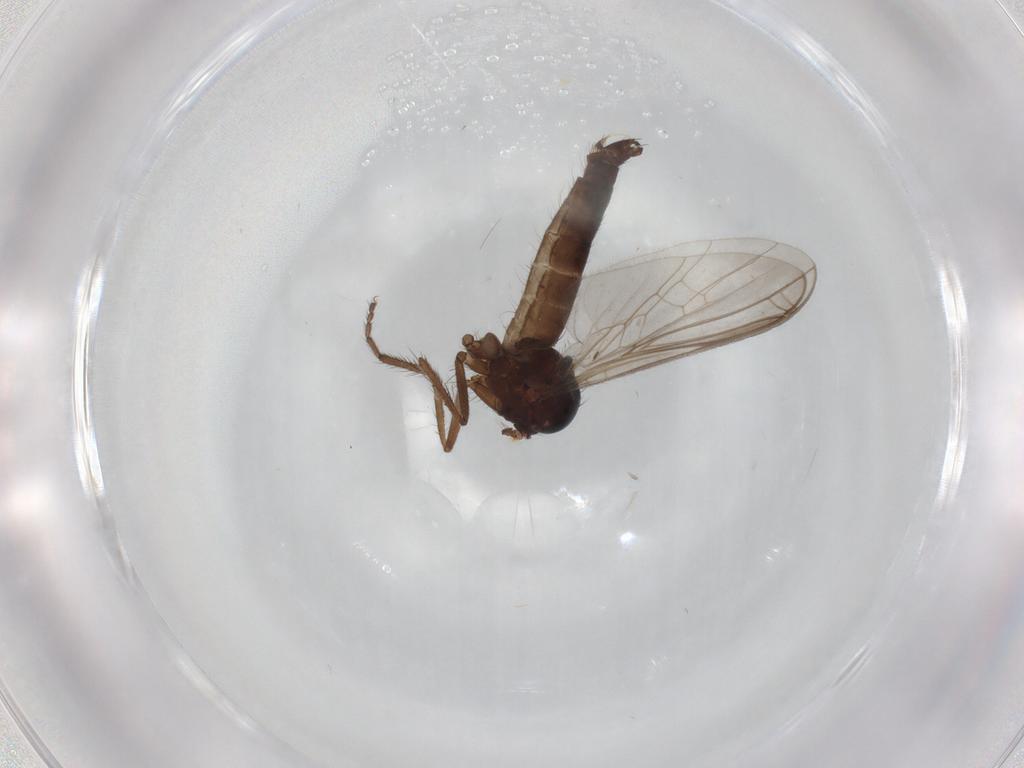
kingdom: Animalia
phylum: Arthropoda
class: Insecta
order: Diptera
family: Empididae
